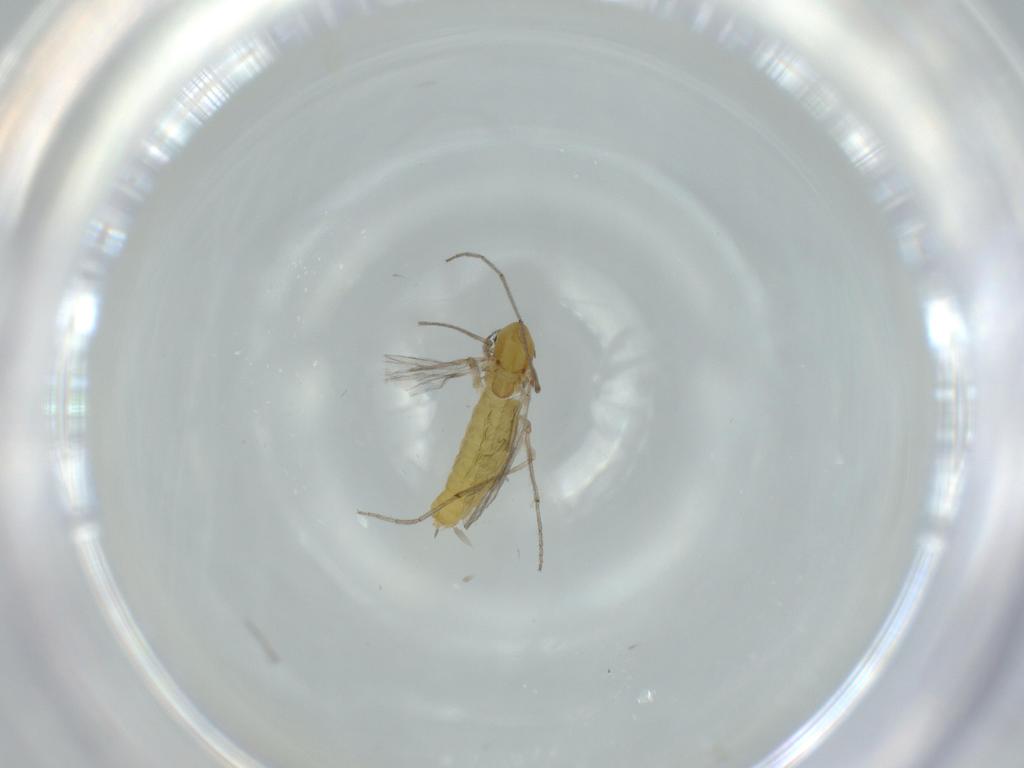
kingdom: Animalia
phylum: Arthropoda
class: Insecta
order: Diptera
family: Chironomidae
